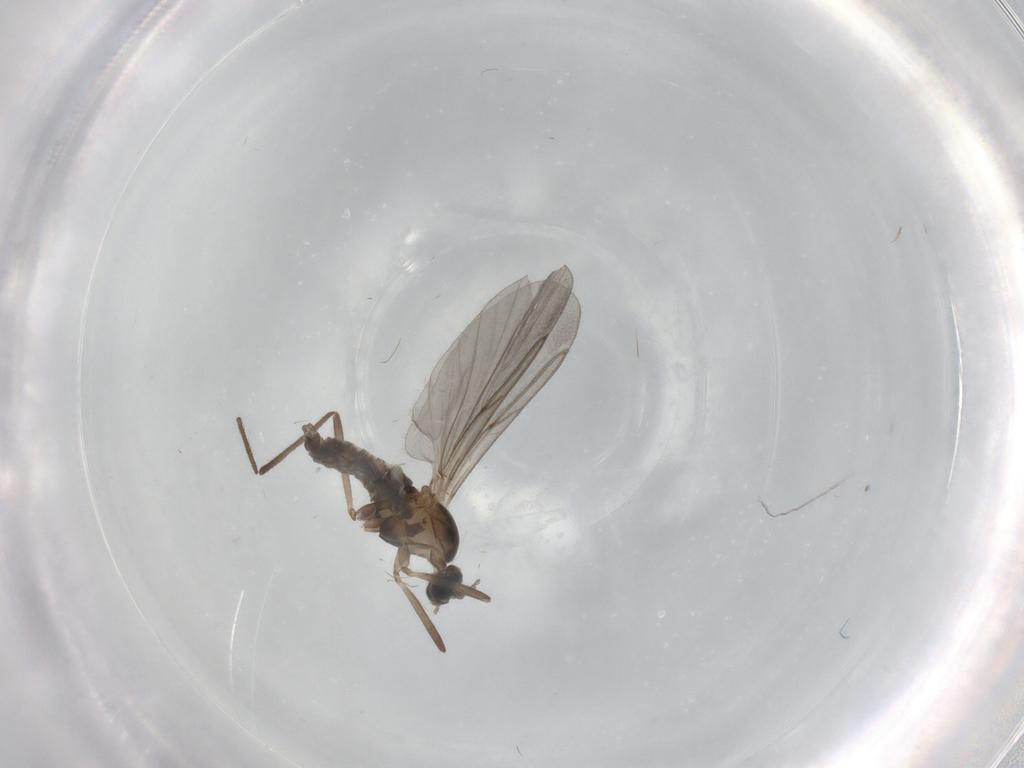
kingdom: Animalia
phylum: Arthropoda
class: Insecta
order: Diptera
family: Cecidomyiidae
